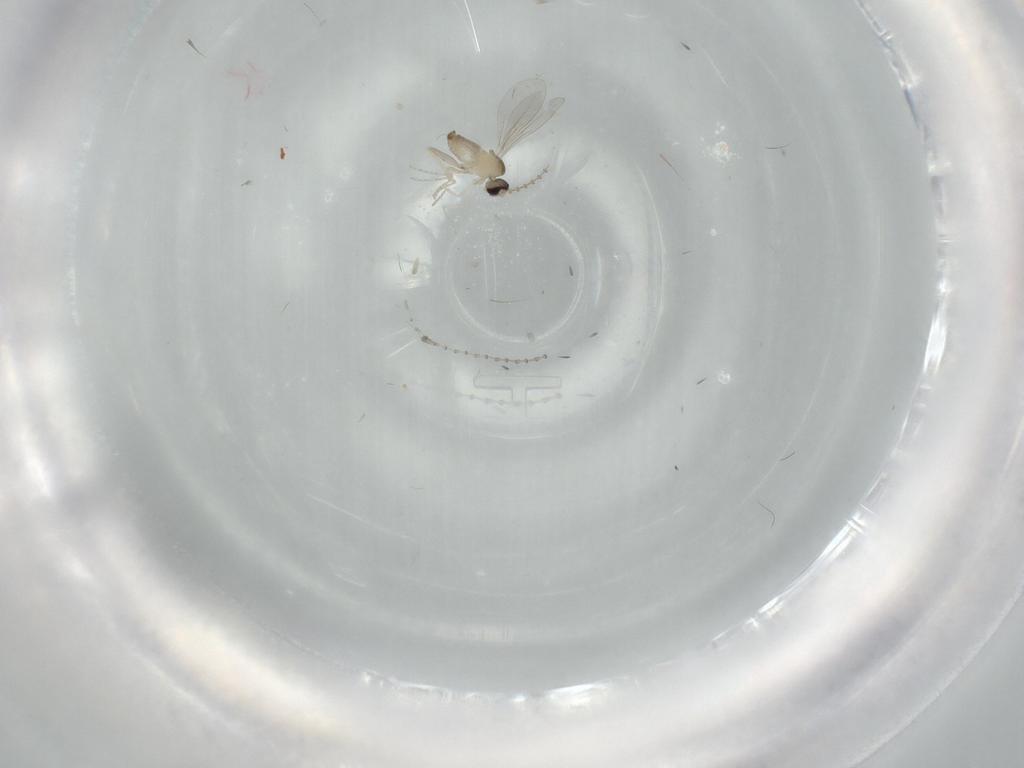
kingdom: Animalia
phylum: Arthropoda
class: Insecta
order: Diptera
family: Cecidomyiidae
